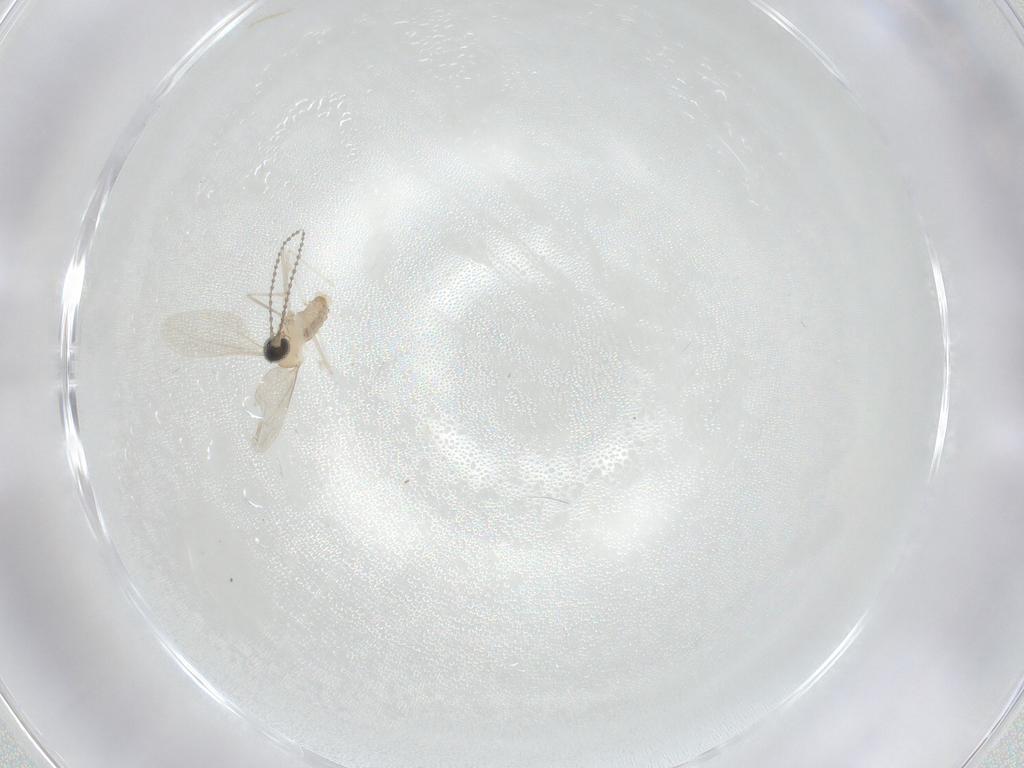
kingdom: Animalia
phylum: Arthropoda
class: Insecta
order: Diptera
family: Cecidomyiidae
